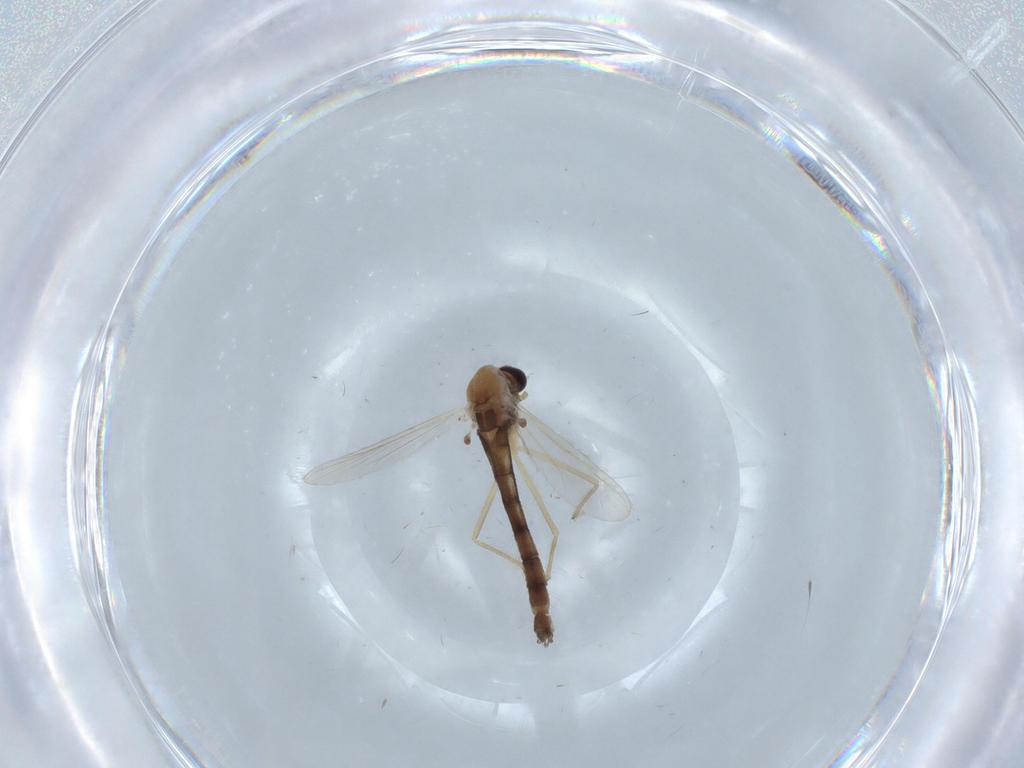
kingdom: Animalia
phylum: Arthropoda
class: Insecta
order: Diptera
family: Chironomidae
